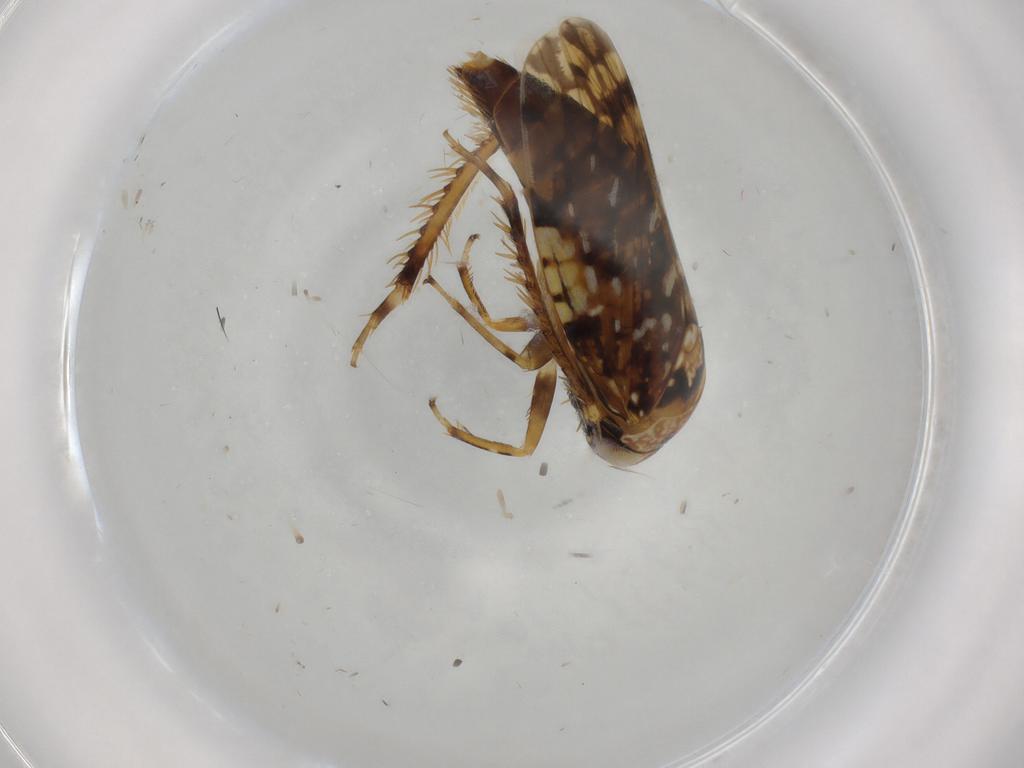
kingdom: Animalia
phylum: Arthropoda
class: Insecta
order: Hemiptera
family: Cicadellidae
